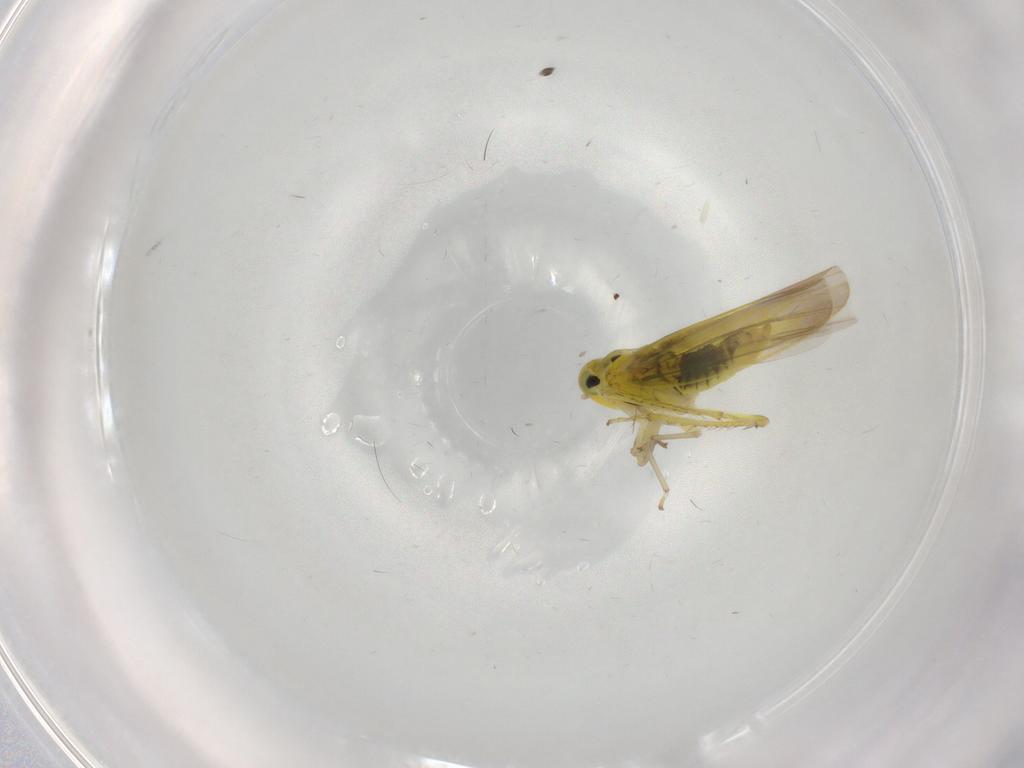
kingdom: Animalia
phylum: Arthropoda
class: Insecta
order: Hemiptera
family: Cicadellidae
